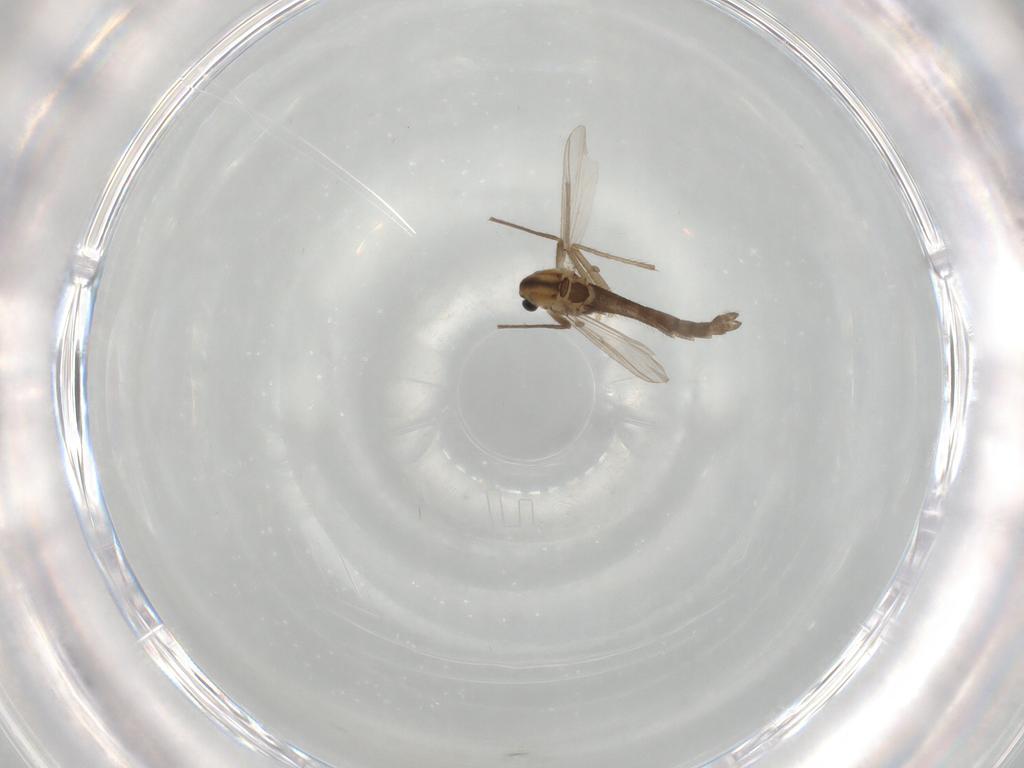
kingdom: Animalia
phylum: Arthropoda
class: Insecta
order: Diptera
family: Chironomidae
